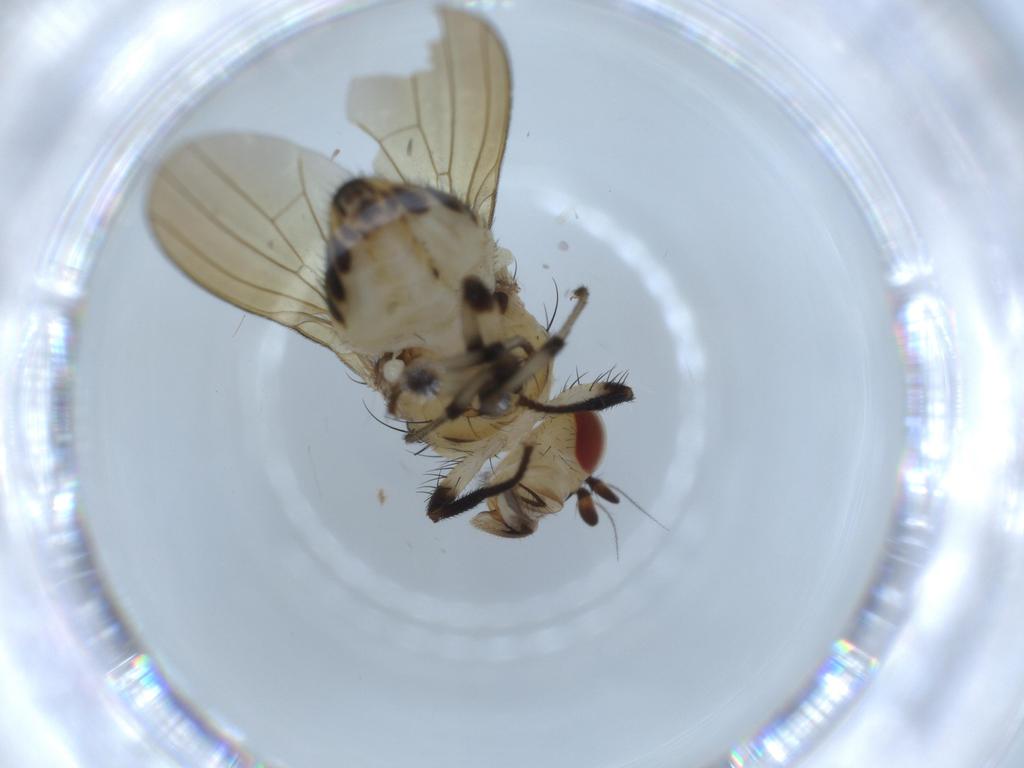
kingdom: Animalia
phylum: Arthropoda
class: Insecta
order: Diptera
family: Lauxaniidae
